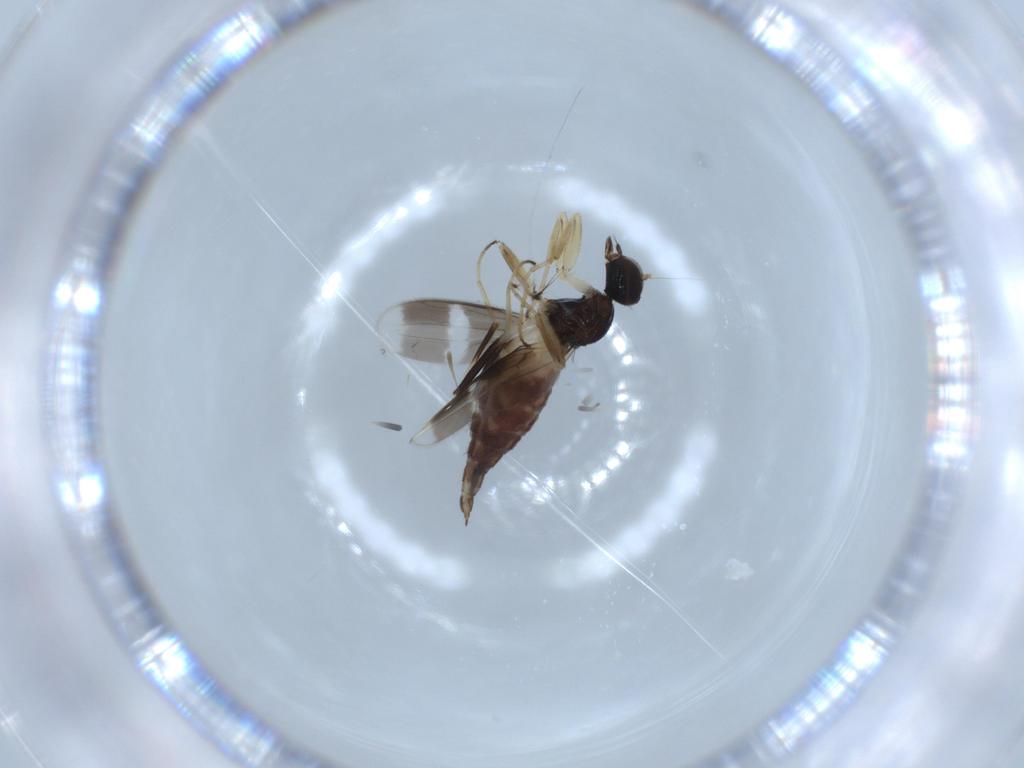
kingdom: Animalia
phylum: Arthropoda
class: Insecta
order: Diptera
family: Hybotidae
